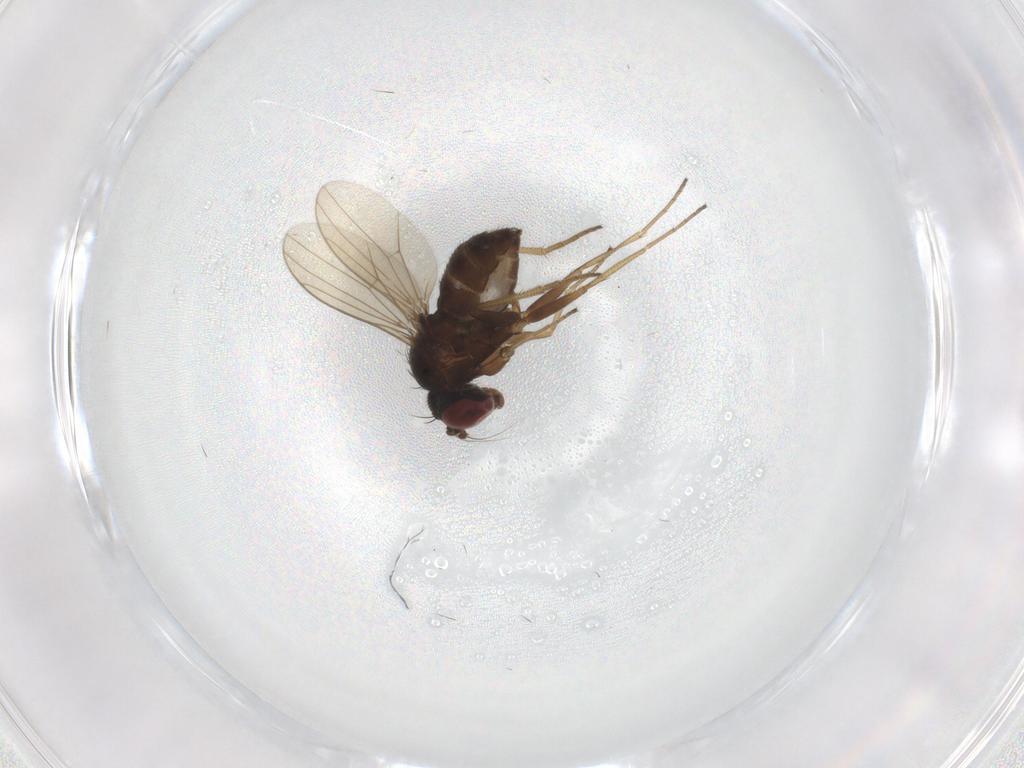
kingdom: Animalia
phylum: Arthropoda
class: Insecta
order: Diptera
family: Dolichopodidae
